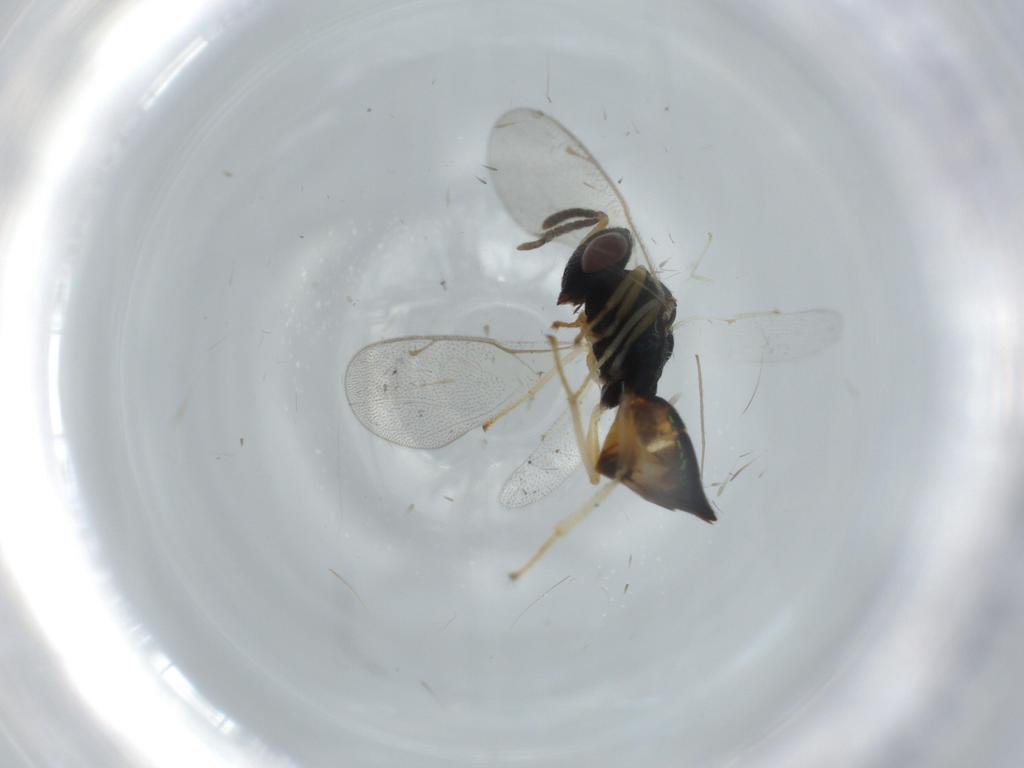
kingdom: Animalia
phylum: Arthropoda
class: Insecta
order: Hymenoptera
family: Eucharitidae
